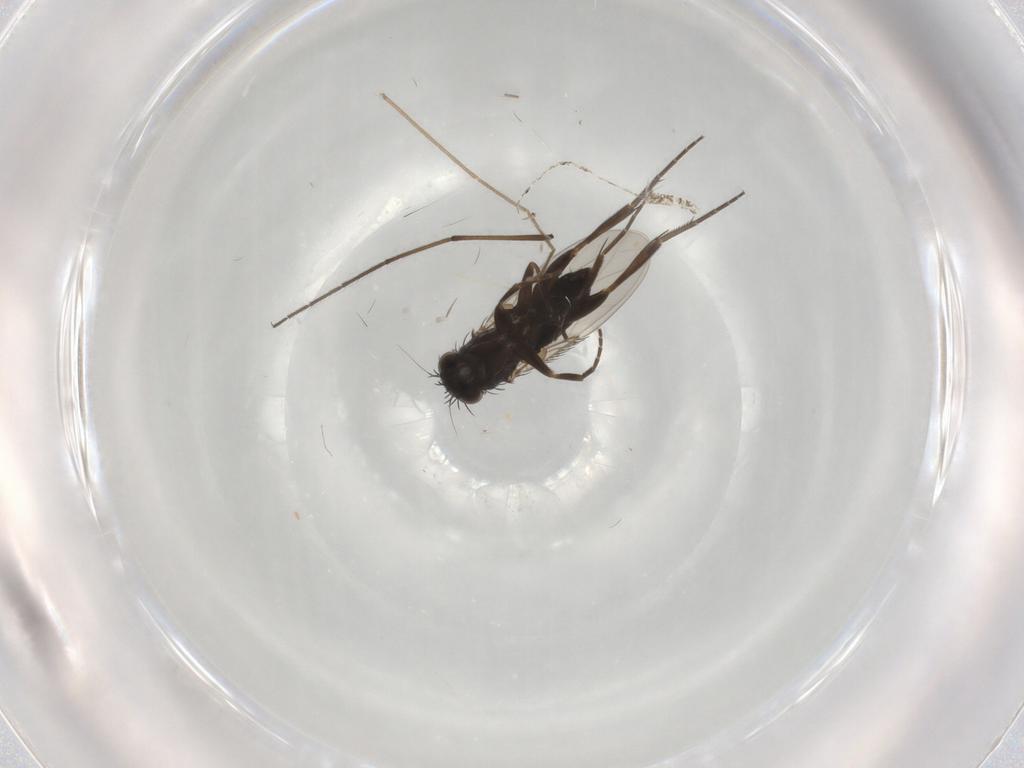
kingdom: Animalia
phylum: Arthropoda
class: Insecta
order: Diptera
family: Phoridae
